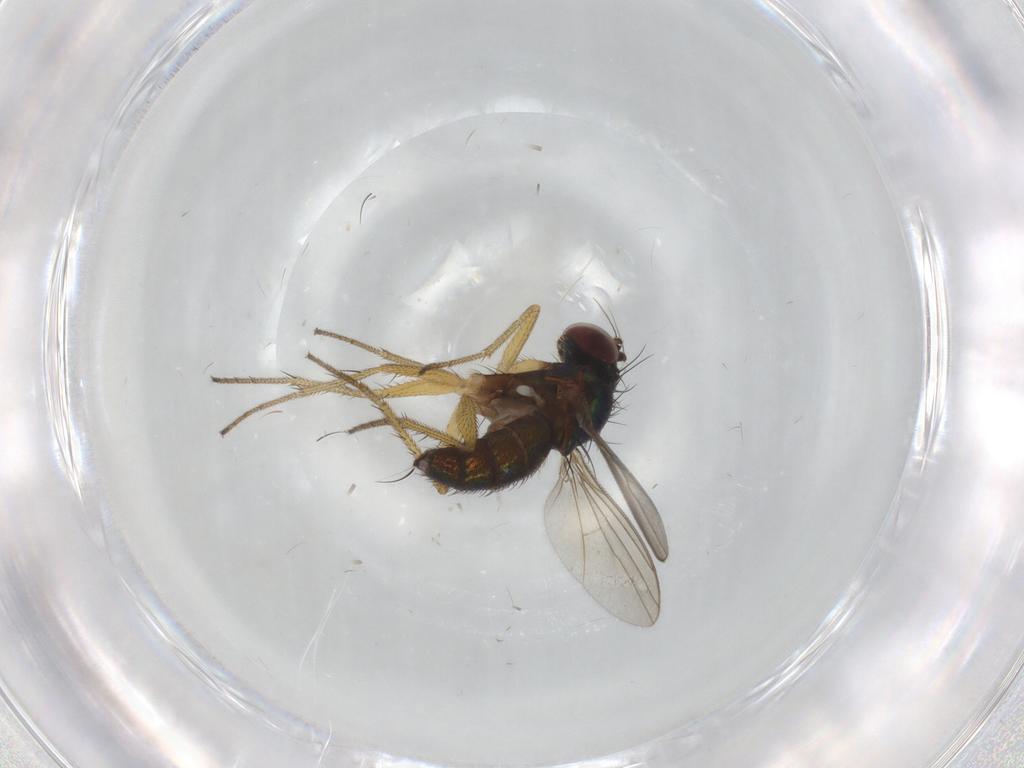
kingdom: Animalia
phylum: Arthropoda
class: Insecta
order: Diptera
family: Ceratopogonidae
